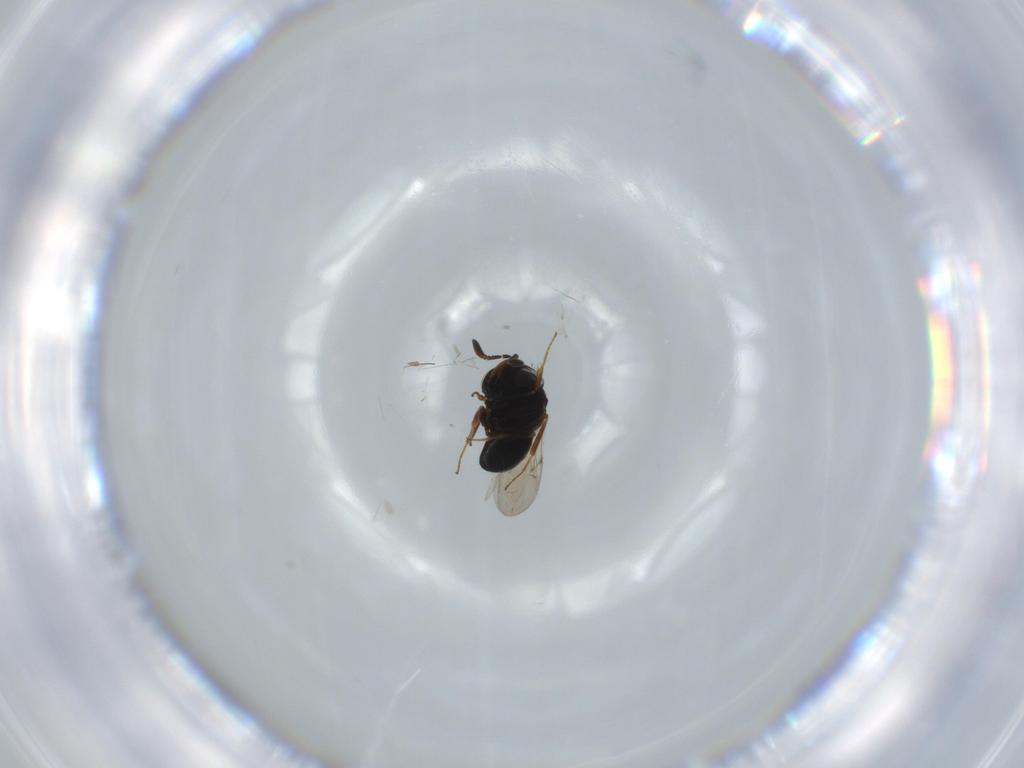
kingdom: Animalia
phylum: Arthropoda
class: Insecta
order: Hymenoptera
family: Scelionidae
